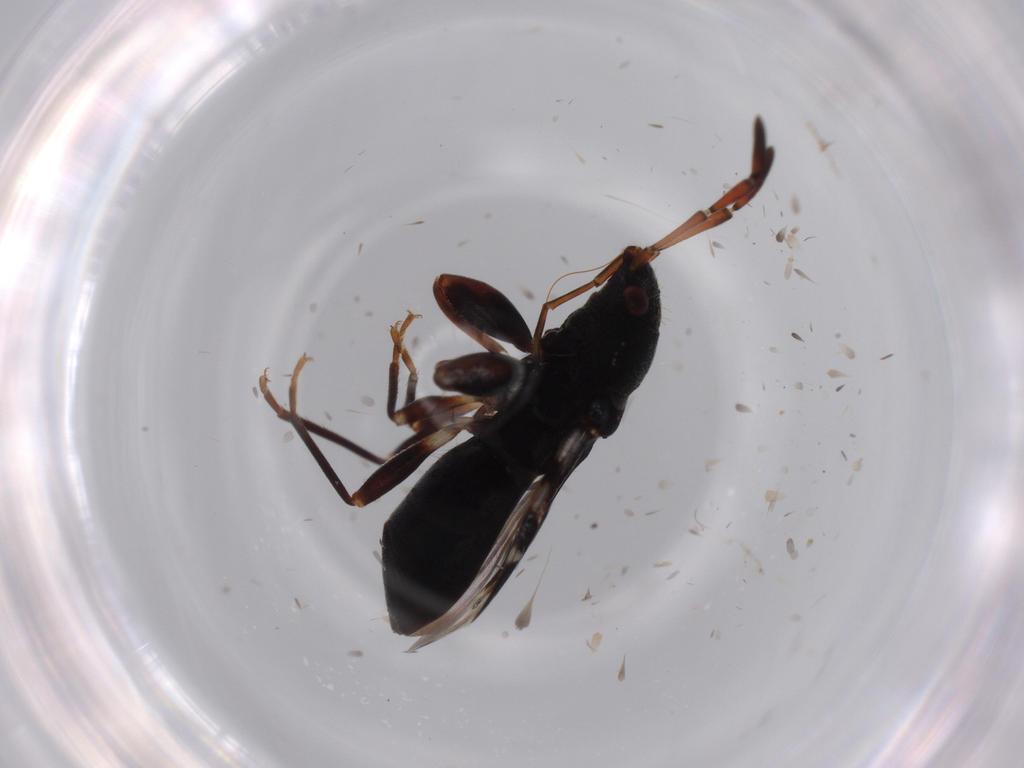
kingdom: Animalia
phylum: Arthropoda
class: Insecta
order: Hemiptera
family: Rhyparochromidae
